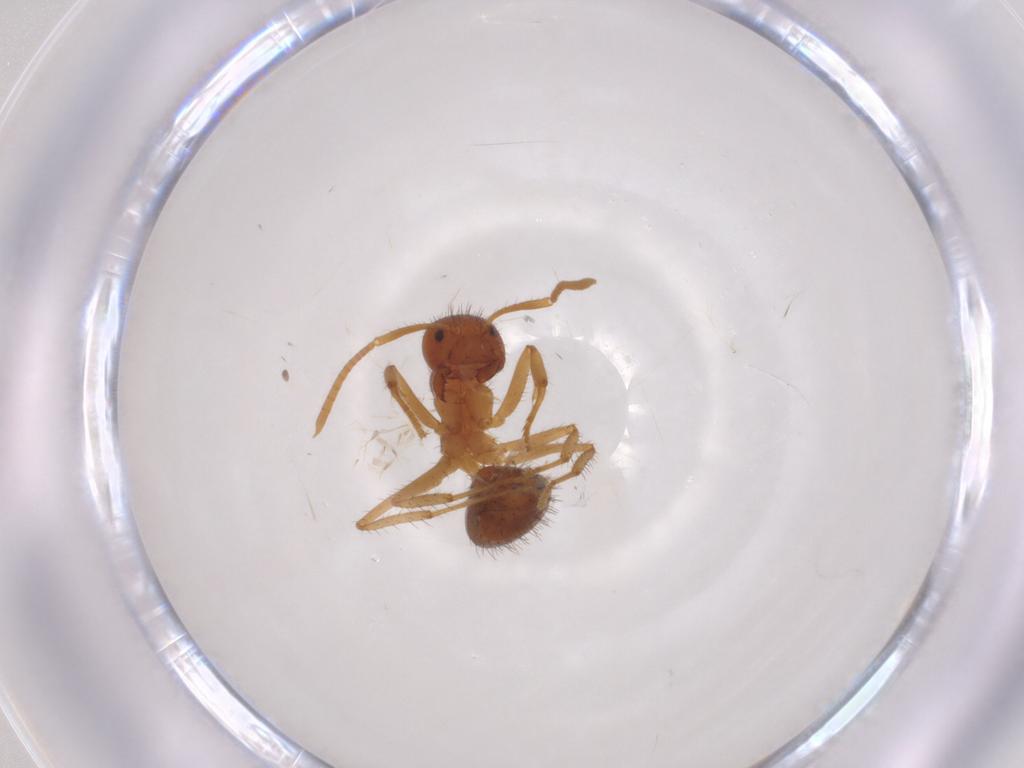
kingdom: Animalia
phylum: Arthropoda
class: Insecta
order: Hymenoptera
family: Formicidae
